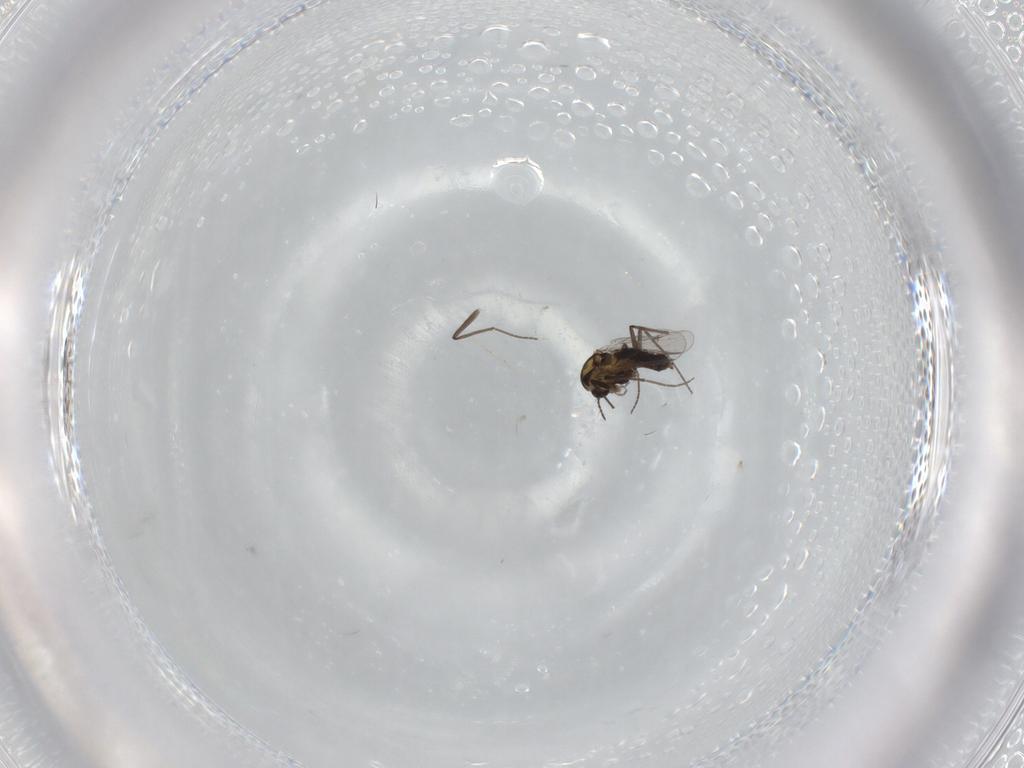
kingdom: Animalia
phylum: Arthropoda
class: Insecta
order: Diptera
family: Chironomidae
